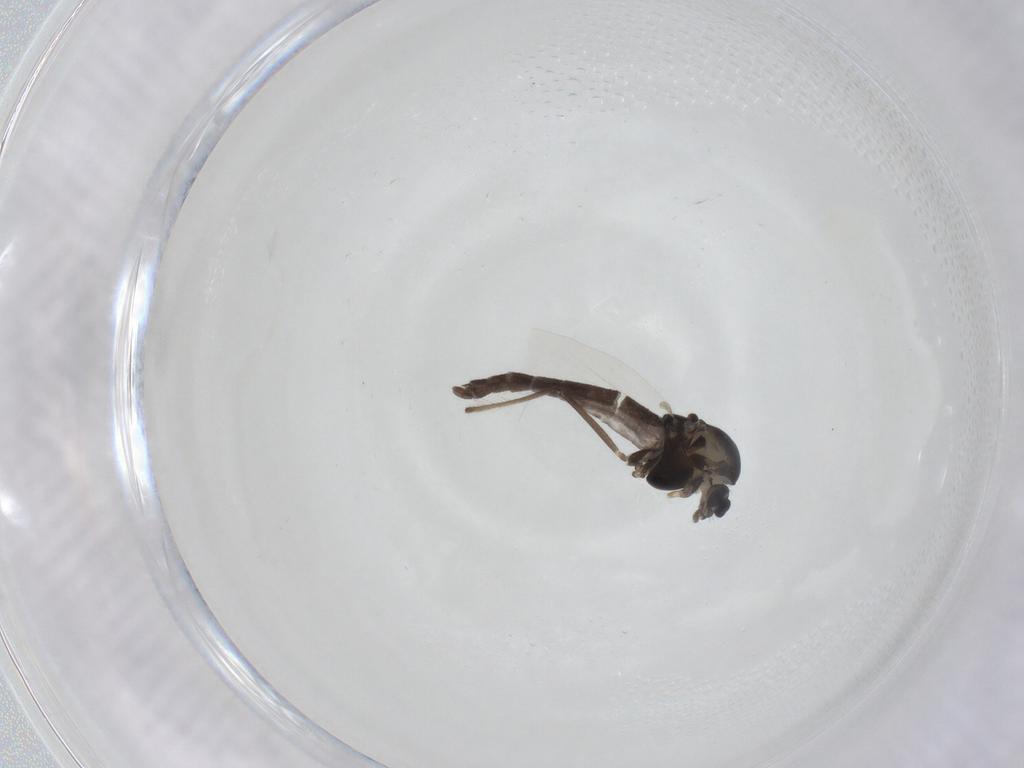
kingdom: Animalia
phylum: Arthropoda
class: Insecta
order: Diptera
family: Chironomidae
